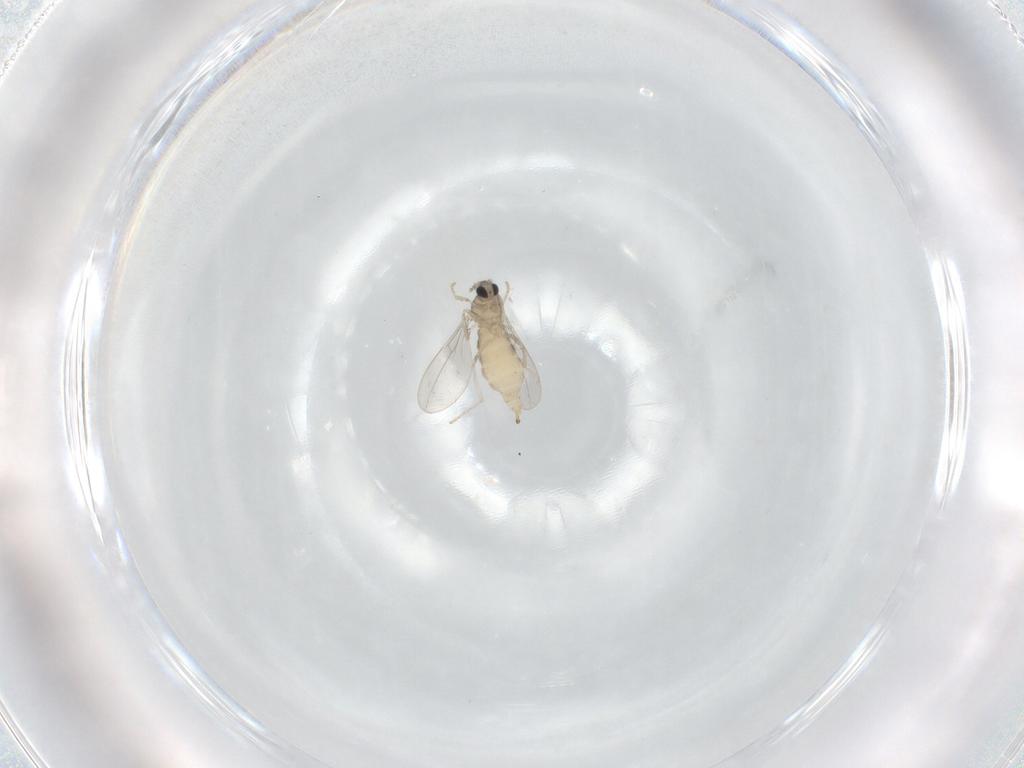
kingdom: Animalia
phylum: Arthropoda
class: Insecta
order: Diptera
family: Cecidomyiidae
